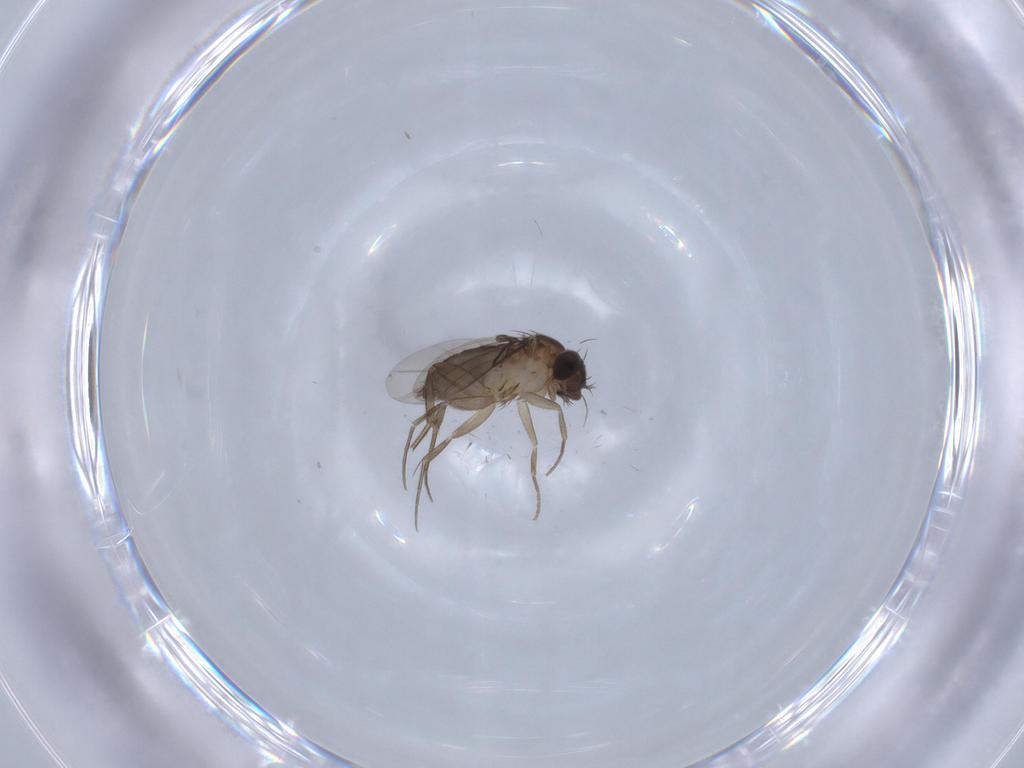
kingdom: Animalia
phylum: Arthropoda
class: Insecta
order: Diptera
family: Phoridae
